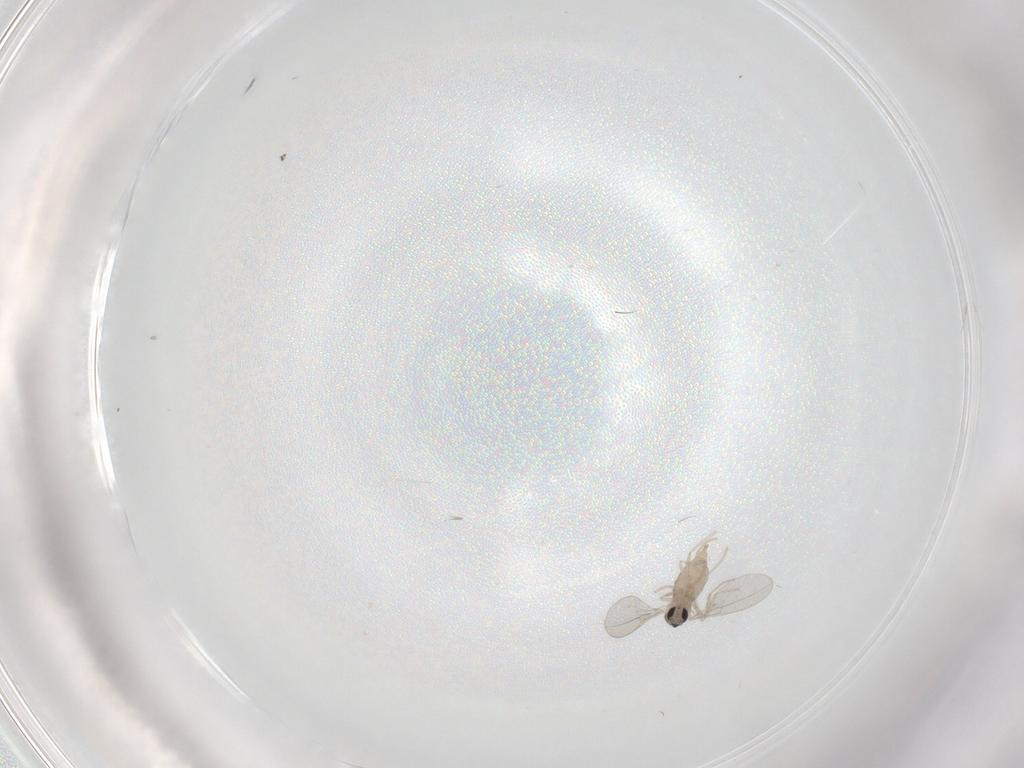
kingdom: Animalia
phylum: Arthropoda
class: Insecta
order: Diptera
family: Cecidomyiidae
